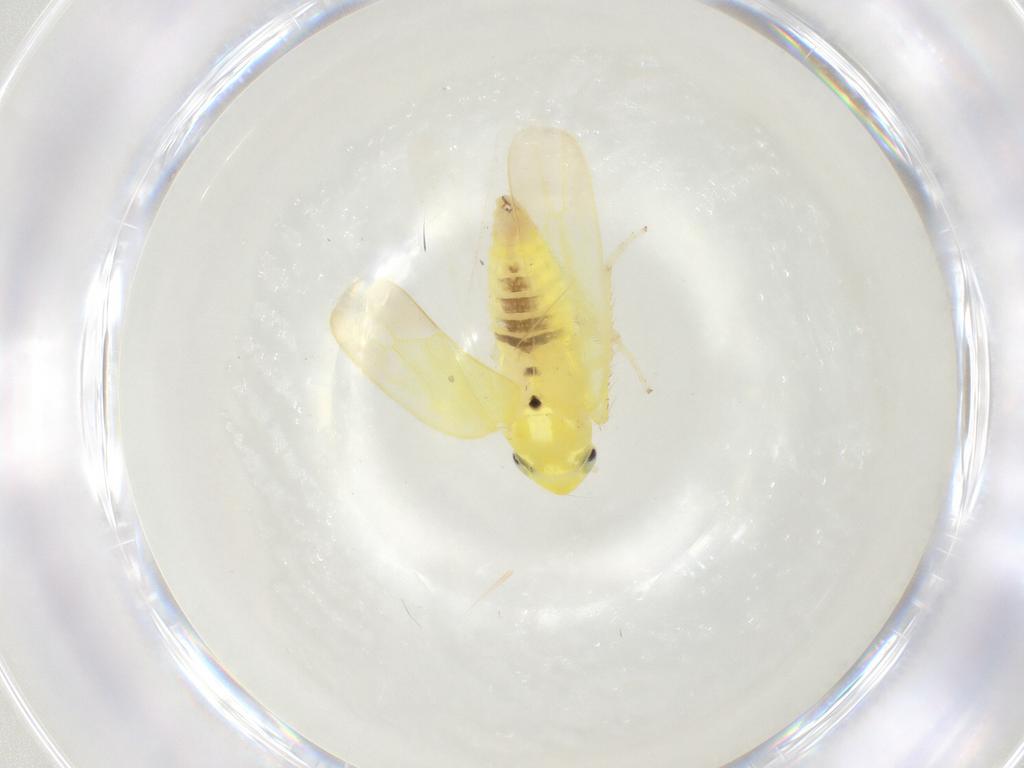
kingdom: Animalia
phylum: Arthropoda
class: Insecta
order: Hemiptera
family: Cicadellidae
